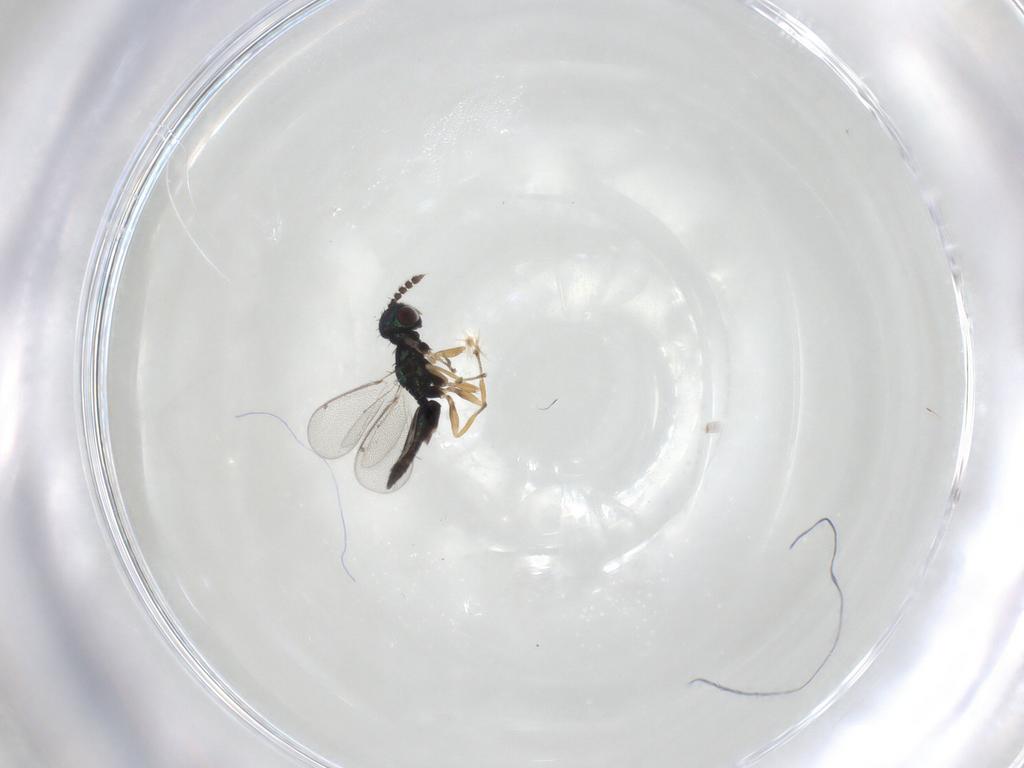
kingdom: Animalia
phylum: Arthropoda
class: Insecta
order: Hymenoptera
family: Eulophidae
